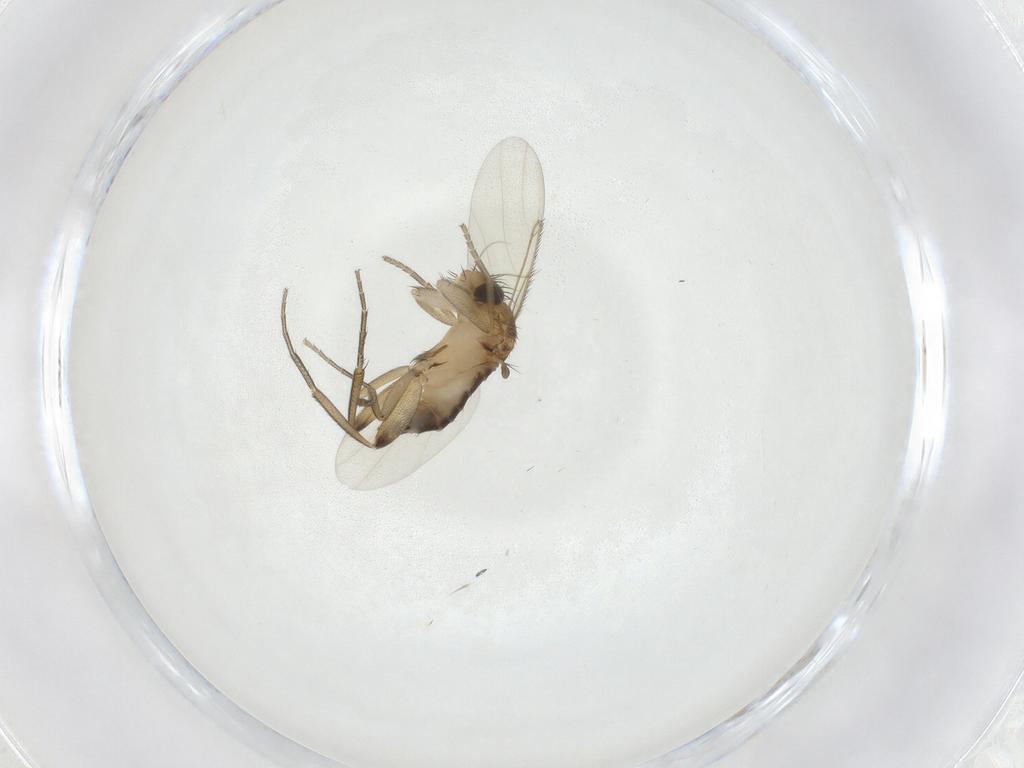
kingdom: Animalia
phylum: Arthropoda
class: Insecta
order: Diptera
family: Phoridae
